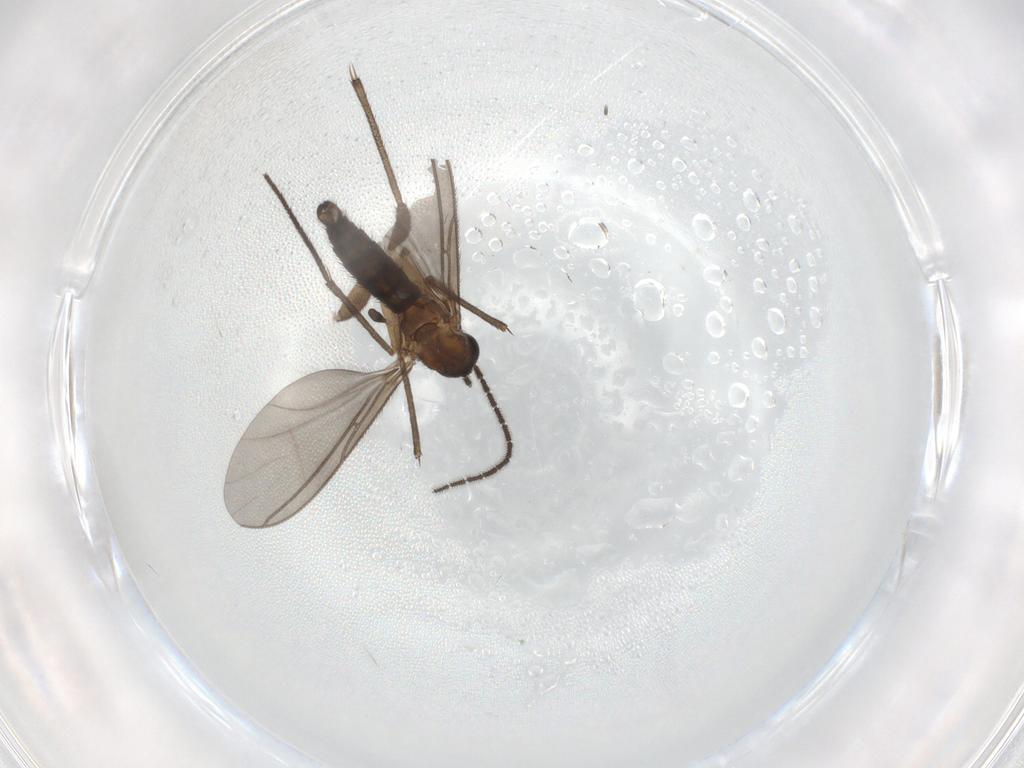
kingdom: Animalia
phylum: Arthropoda
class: Insecta
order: Diptera
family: Sciaridae
